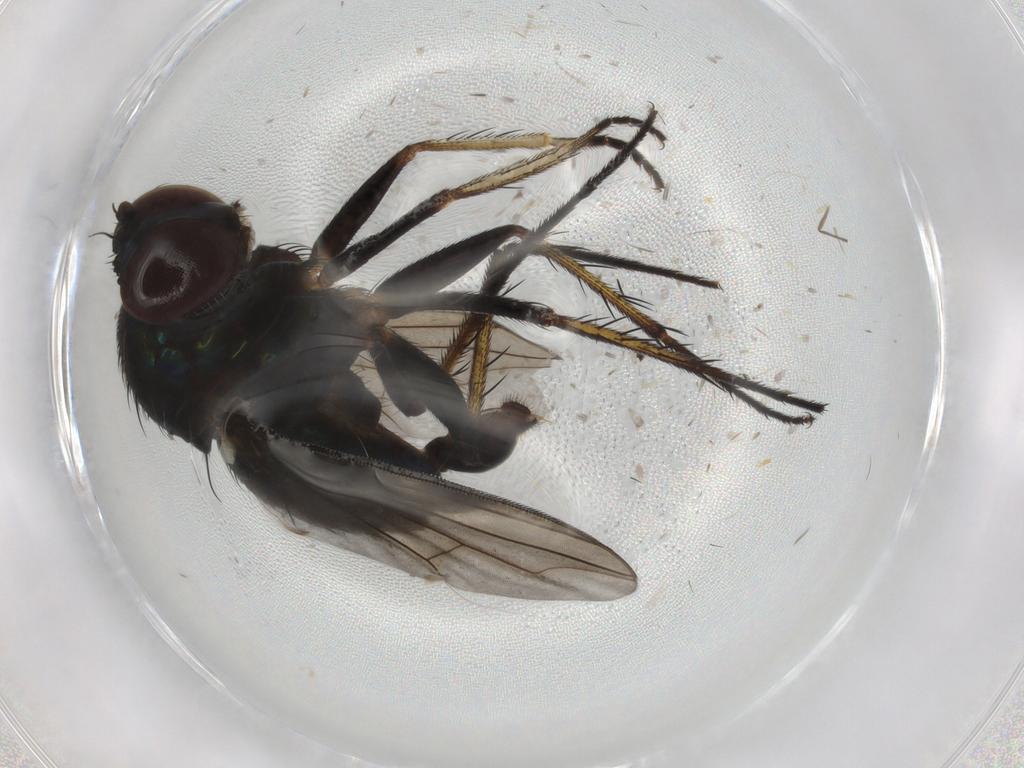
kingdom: Animalia
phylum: Arthropoda
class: Insecta
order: Diptera
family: Dolichopodidae
